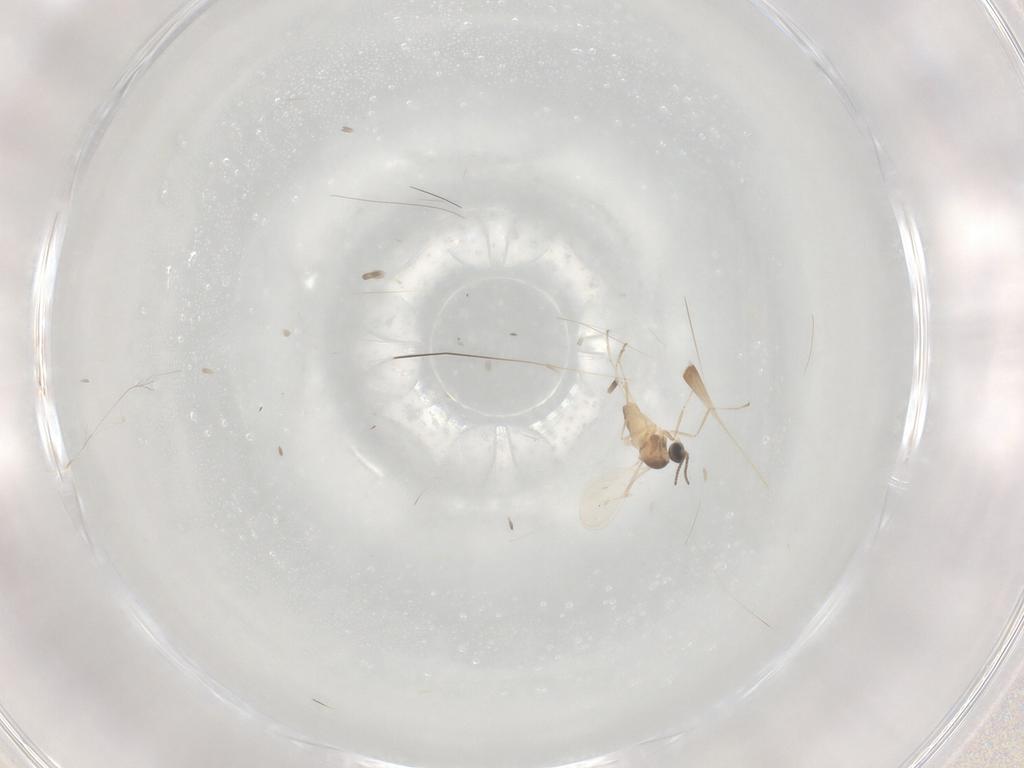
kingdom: Animalia
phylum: Arthropoda
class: Insecta
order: Diptera
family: Cecidomyiidae
